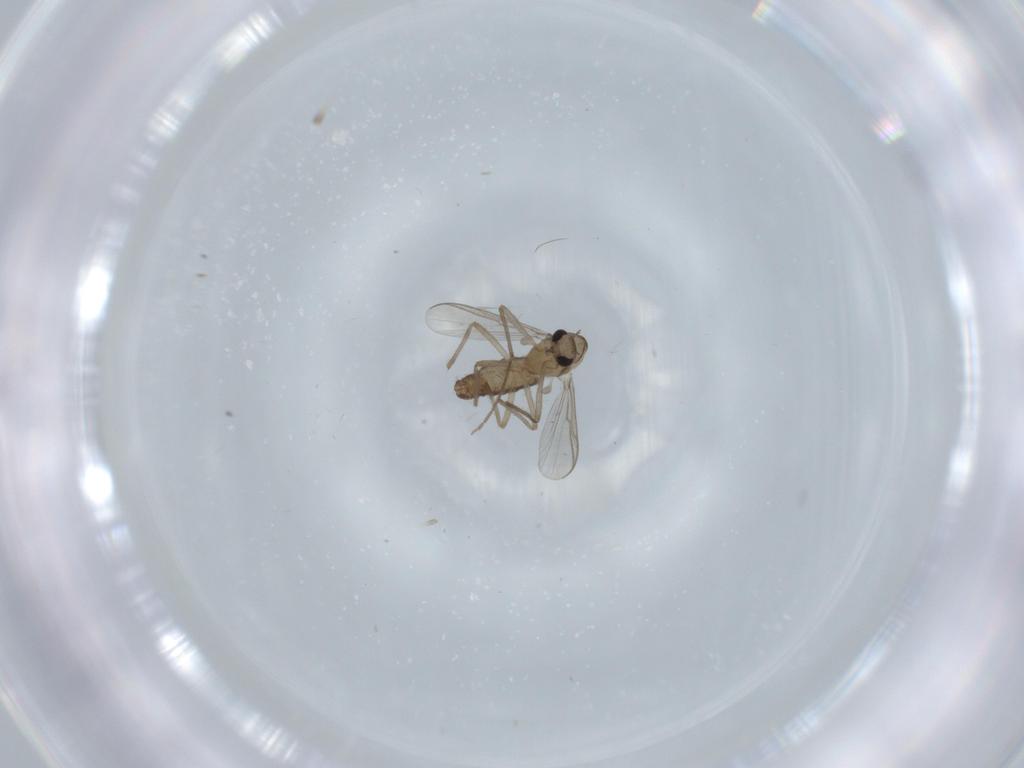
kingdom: Animalia
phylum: Arthropoda
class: Insecta
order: Diptera
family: Chironomidae
